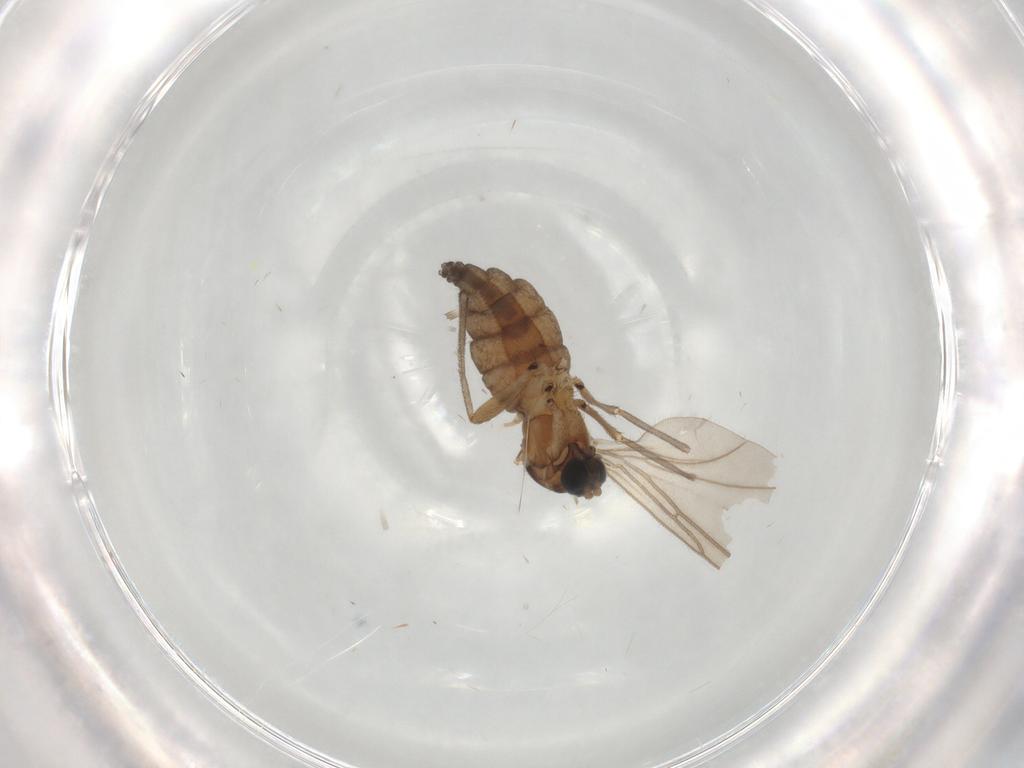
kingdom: Animalia
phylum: Arthropoda
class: Insecta
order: Diptera
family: Sciaridae
